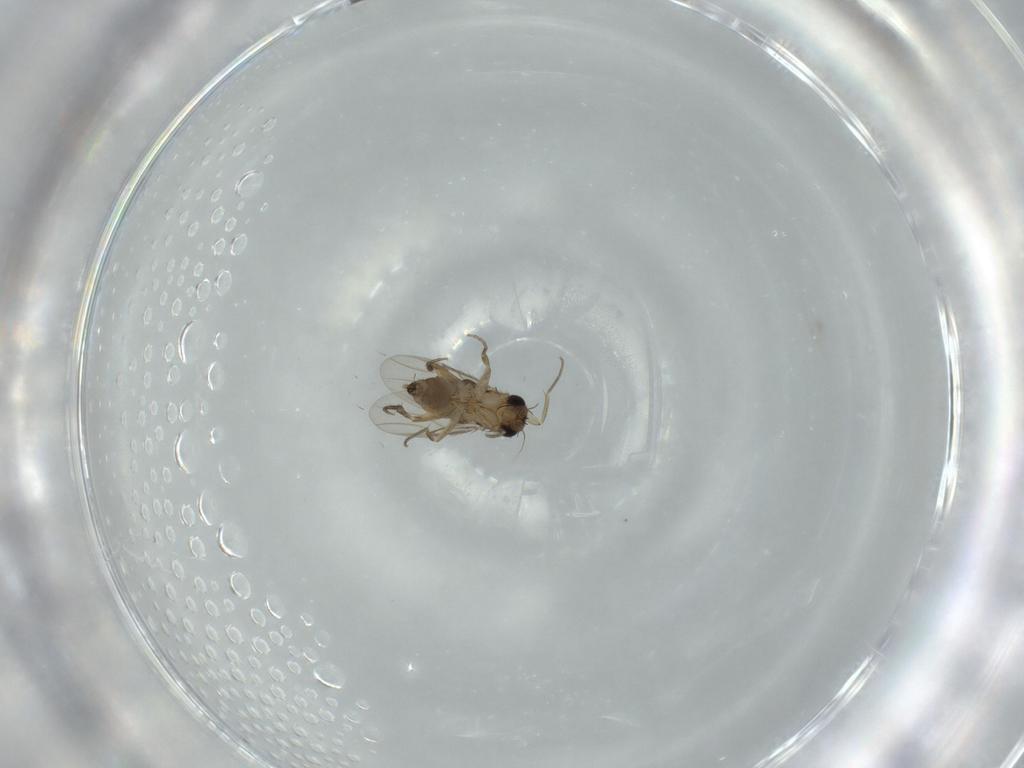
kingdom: Animalia
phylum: Arthropoda
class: Insecta
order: Diptera
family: Phoridae
